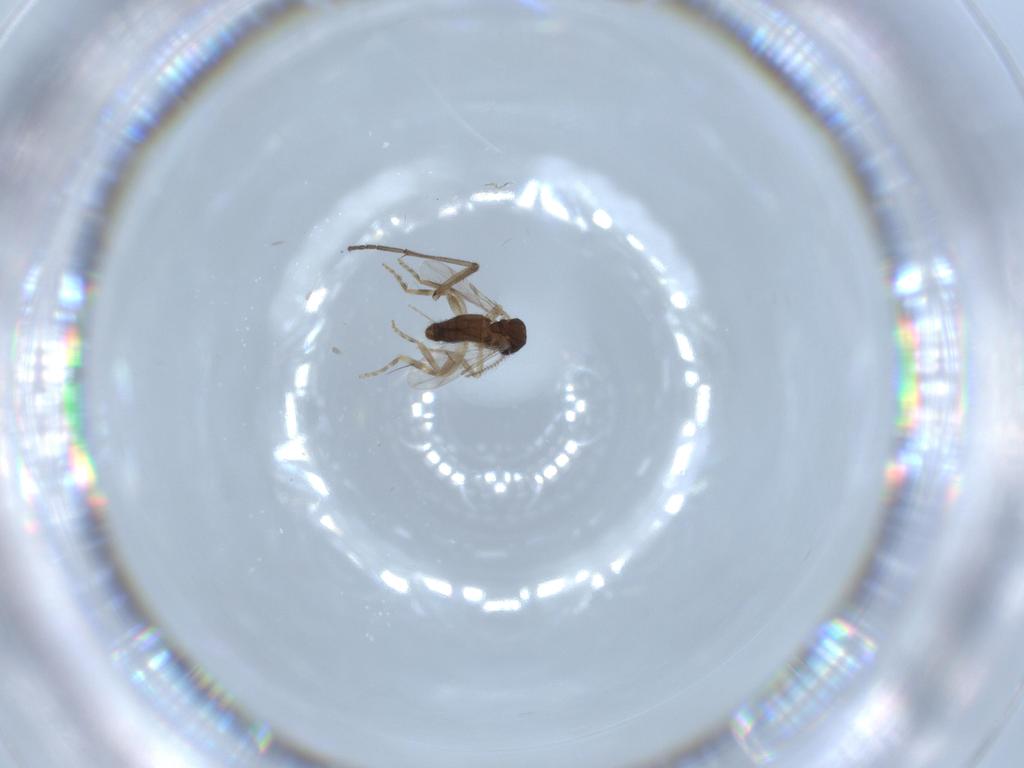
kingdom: Animalia
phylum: Arthropoda
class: Insecta
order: Diptera
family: Ceratopogonidae
